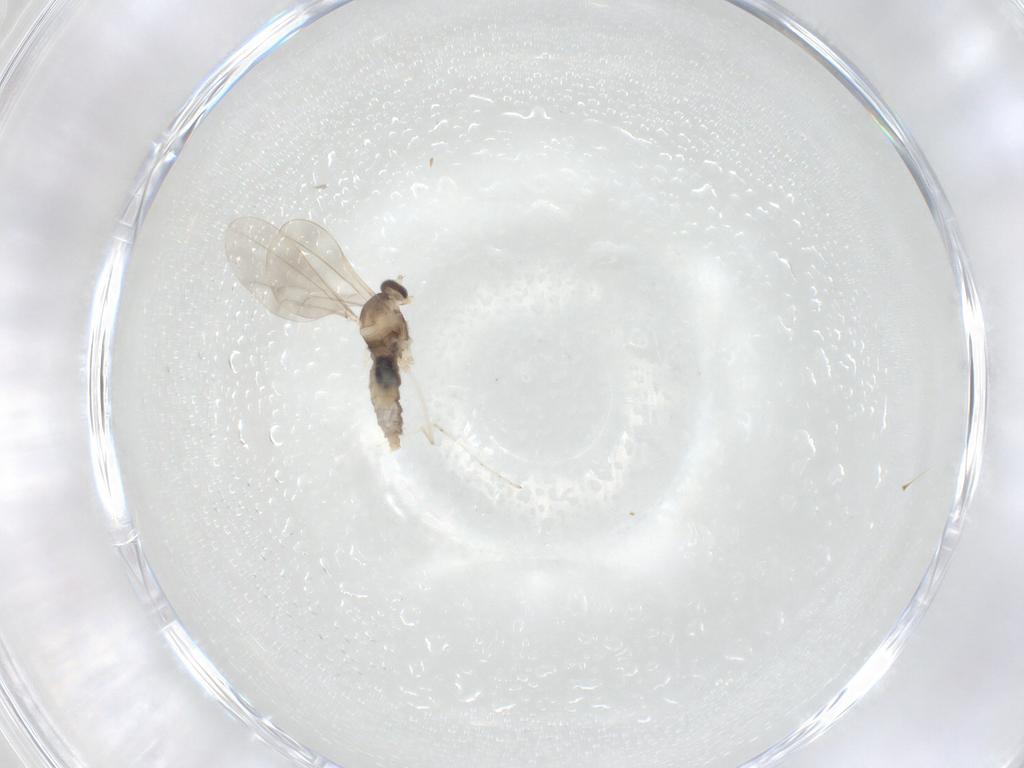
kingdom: Animalia
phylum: Arthropoda
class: Insecta
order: Diptera
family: Cecidomyiidae
